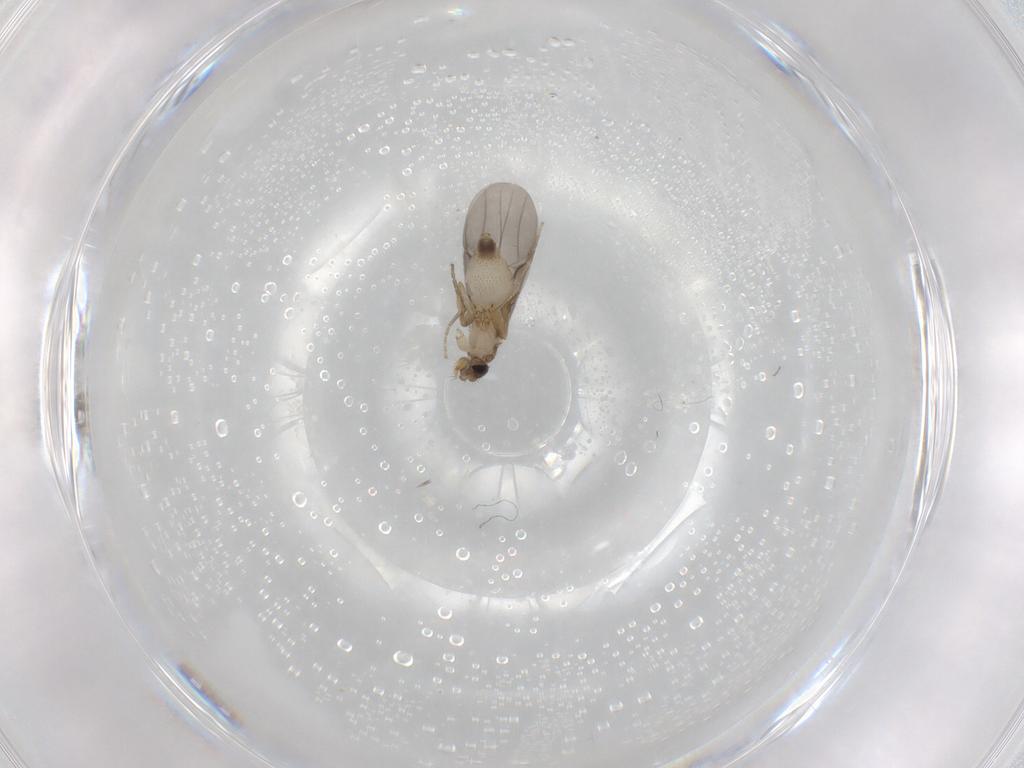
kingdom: Animalia
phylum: Arthropoda
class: Insecta
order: Diptera
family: Phoridae
